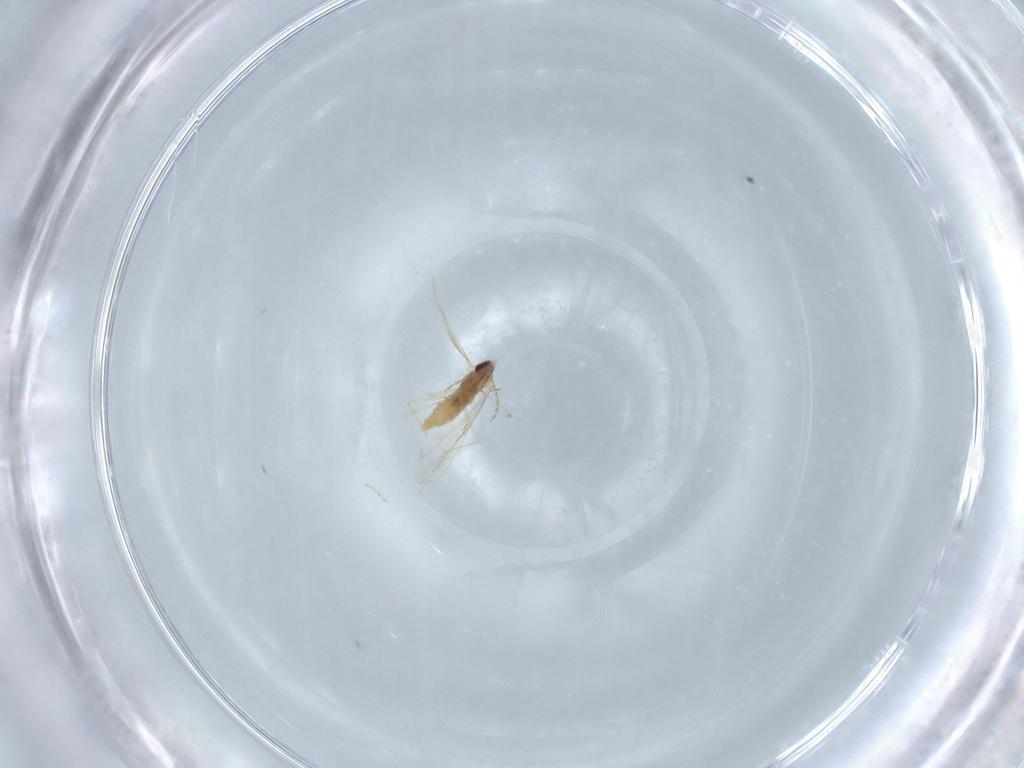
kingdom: Animalia
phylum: Arthropoda
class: Insecta
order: Diptera
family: Cecidomyiidae
